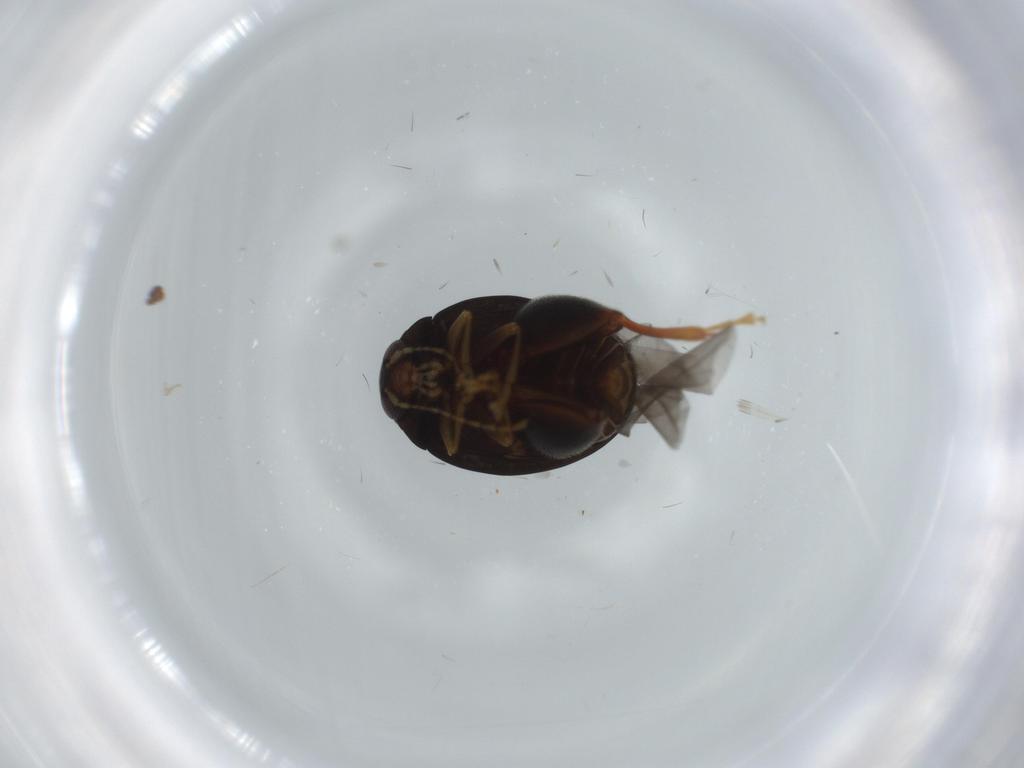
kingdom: Animalia
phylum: Arthropoda
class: Insecta
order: Coleoptera
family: Chrysomelidae
